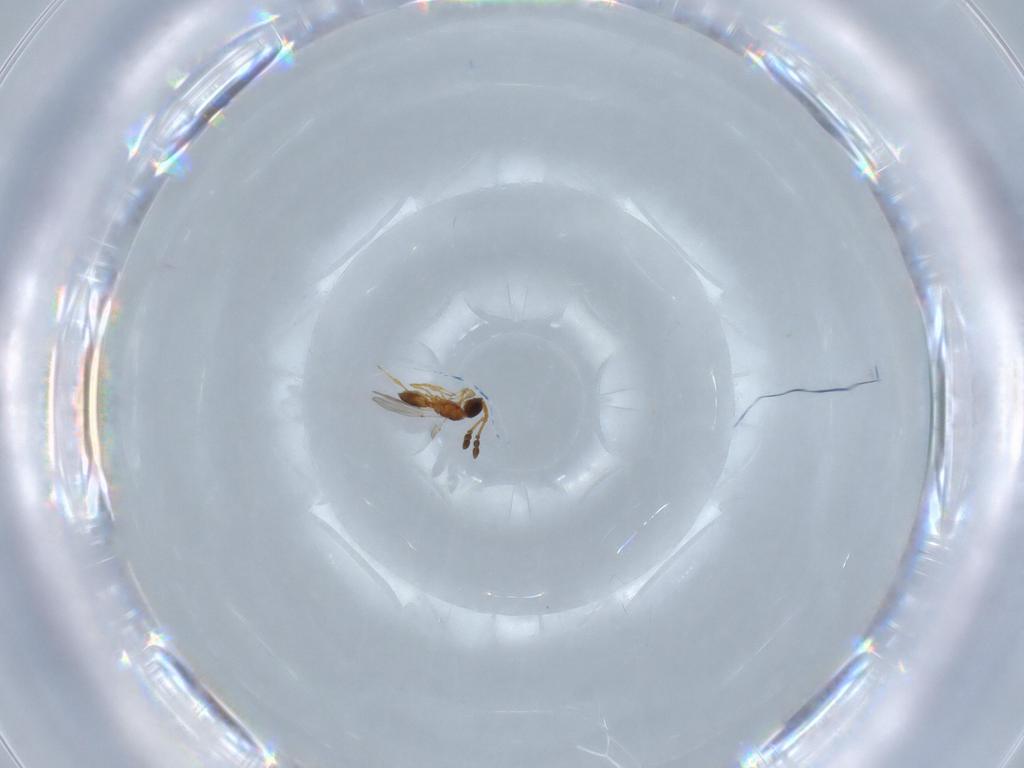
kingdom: Animalia
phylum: Arthropoda
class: Insecta
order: Hymenoptera
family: Diapriidae
